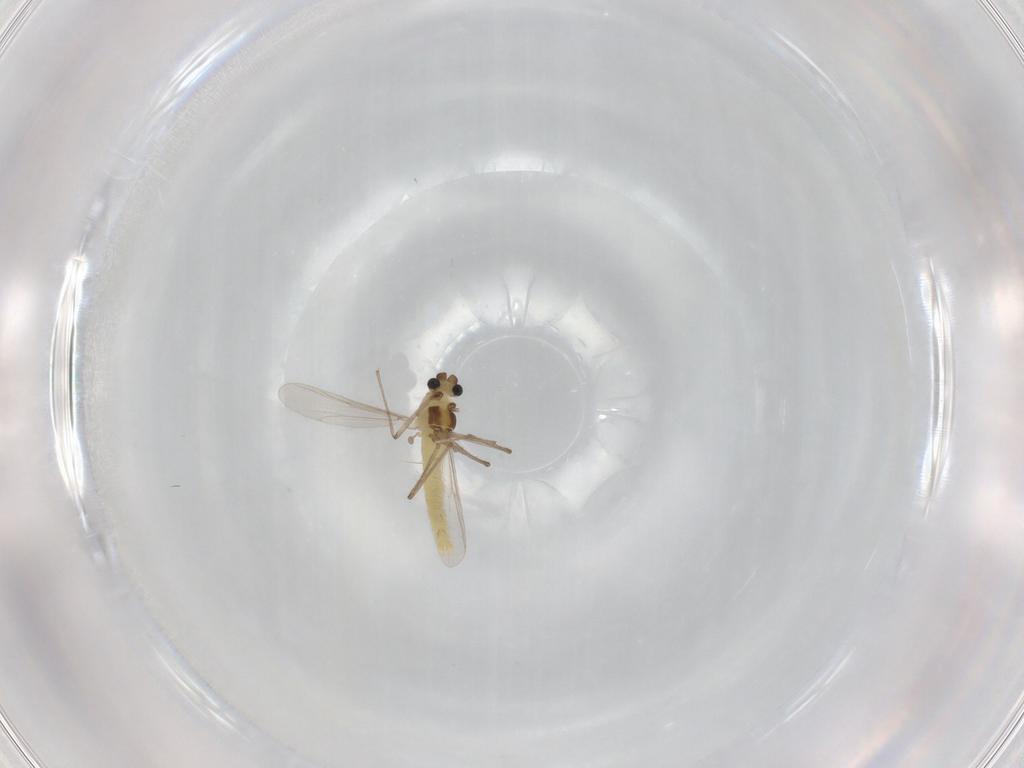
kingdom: Animalia
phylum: Arthropoda
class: Insecta
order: Diptera
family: Chironomidae
